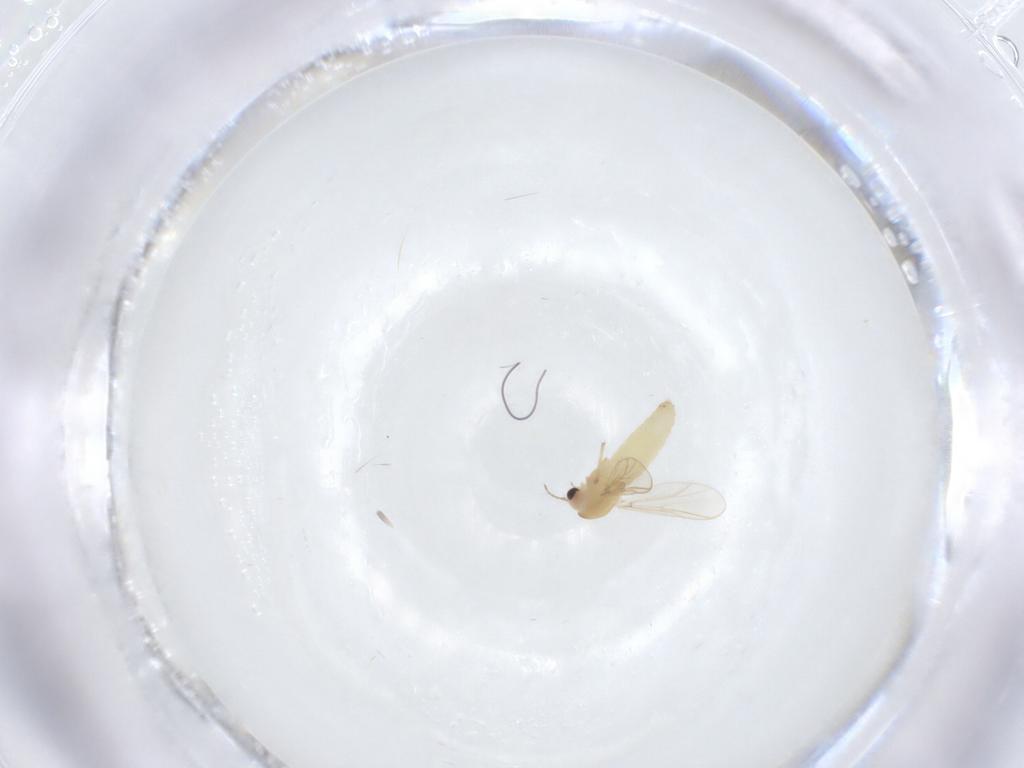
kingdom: Animalia
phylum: Arthropoda
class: Insecta
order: Diptera
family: Chironomidae
